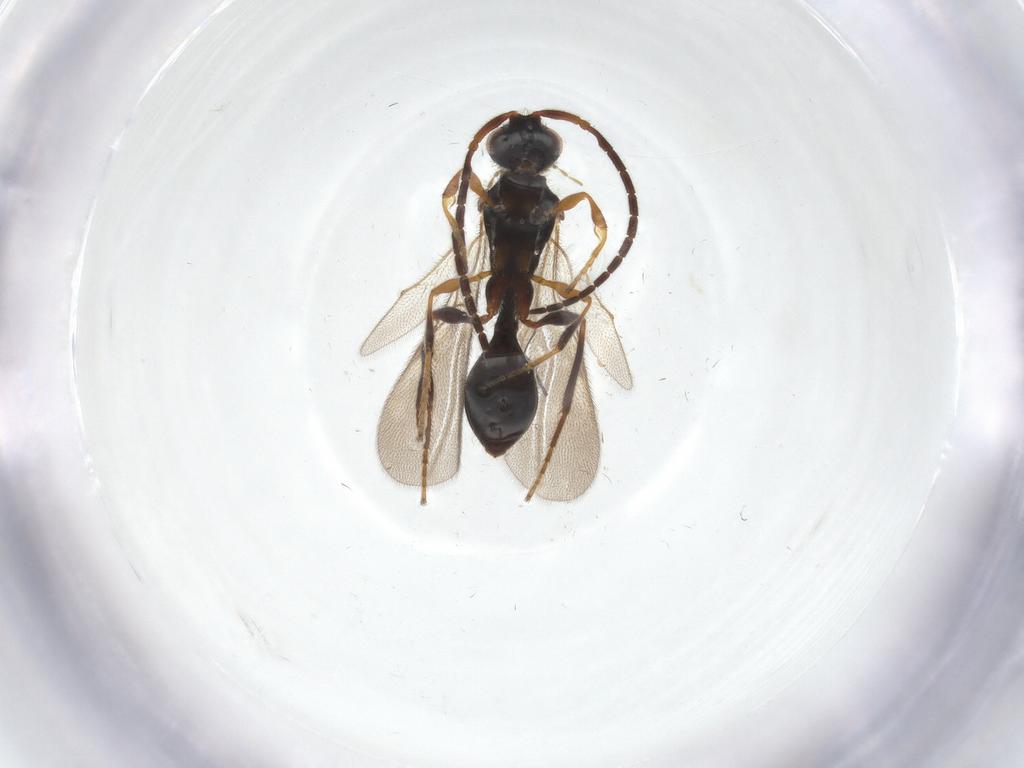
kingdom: Animalia
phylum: Arthropoda
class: Insecta
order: Hymenoptera
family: Diapriidae
